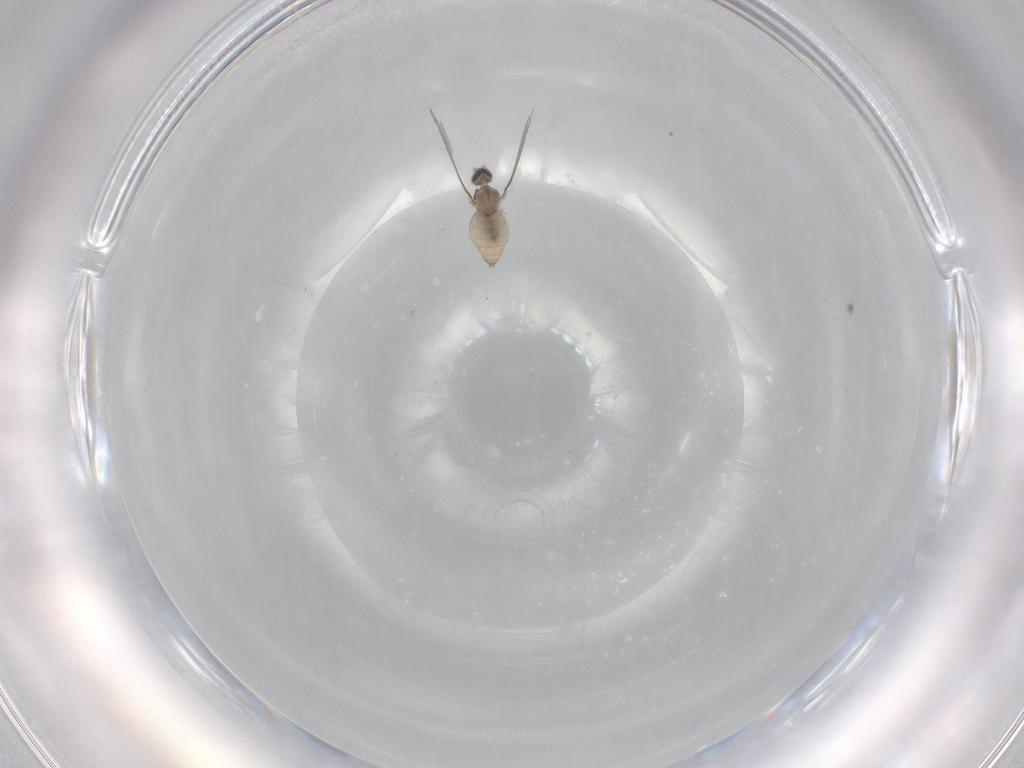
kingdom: Animalia
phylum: Arthropoda
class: Insecta
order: Diptera
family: Cecidomyiidae
